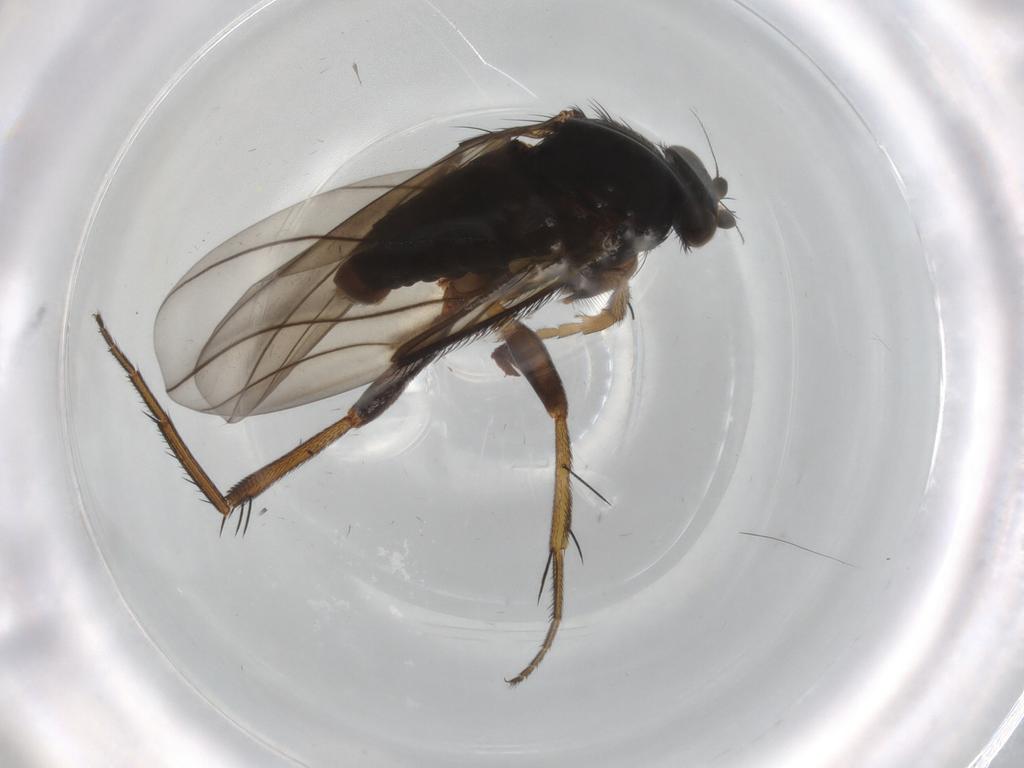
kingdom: Animalia
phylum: Arthropoda
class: Insecta
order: Diptera
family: Phoridae
